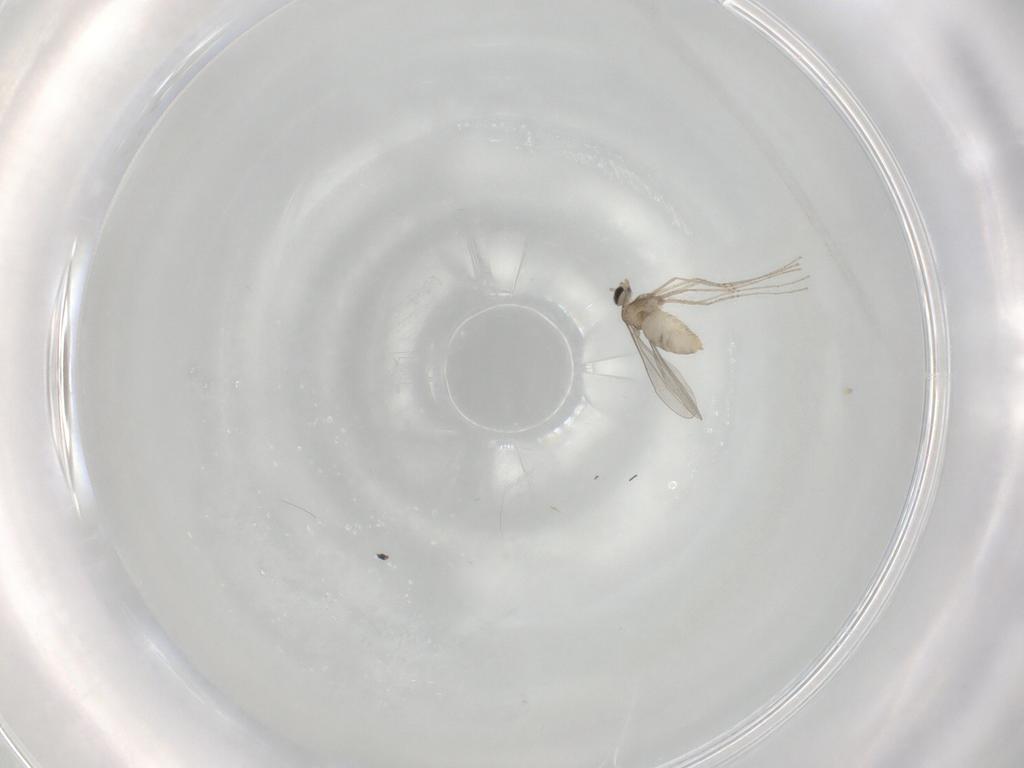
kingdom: Animalia
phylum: Arthropoda
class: Insecta
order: Diptera
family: Cecidomyiidae
